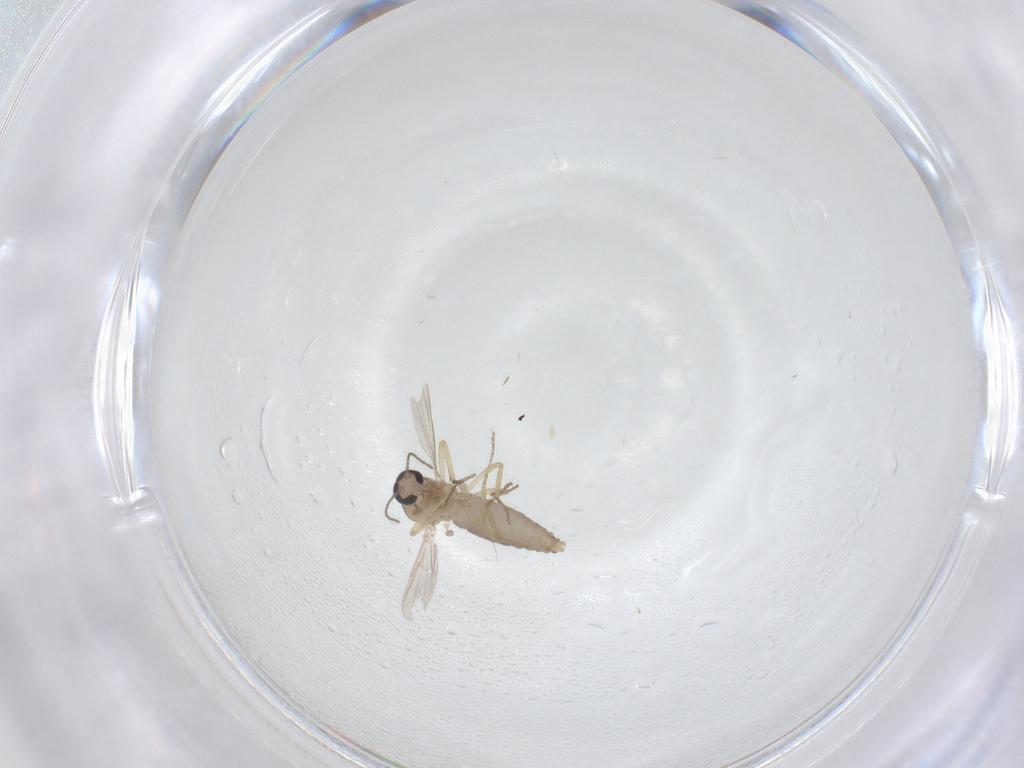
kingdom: Animalia
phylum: Arthropoda
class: Insecta
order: Diptera
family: Ceratopogonidae
